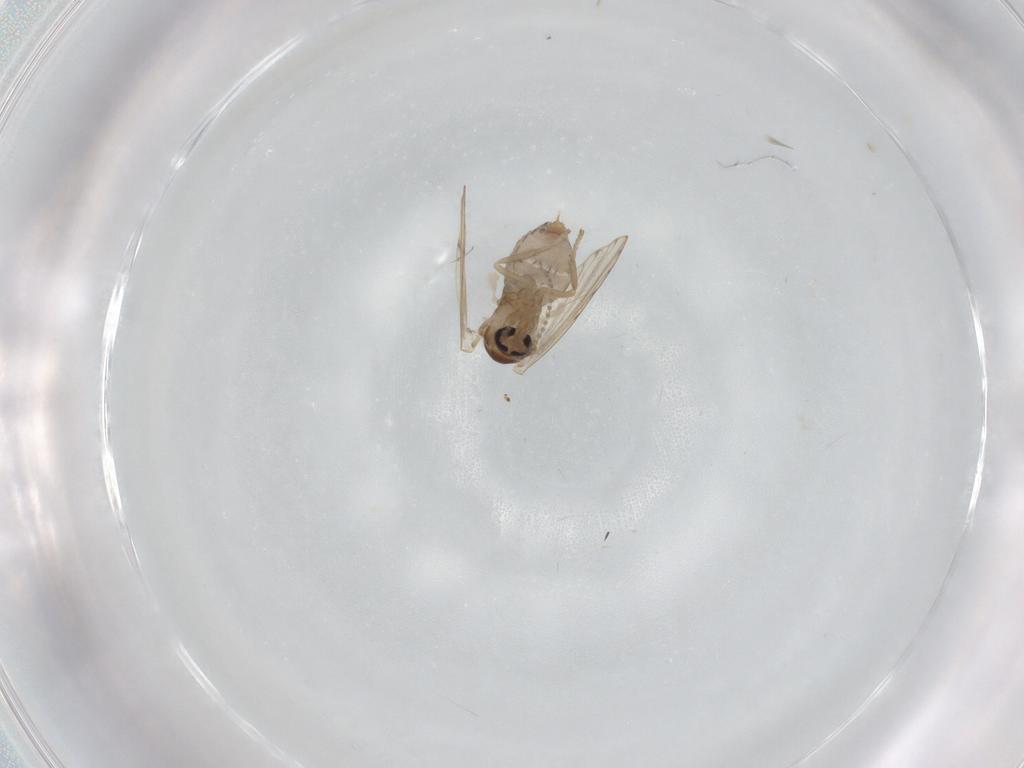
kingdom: Animalia
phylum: Arthropoda
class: Insecta
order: Diptera
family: Psychodidae
